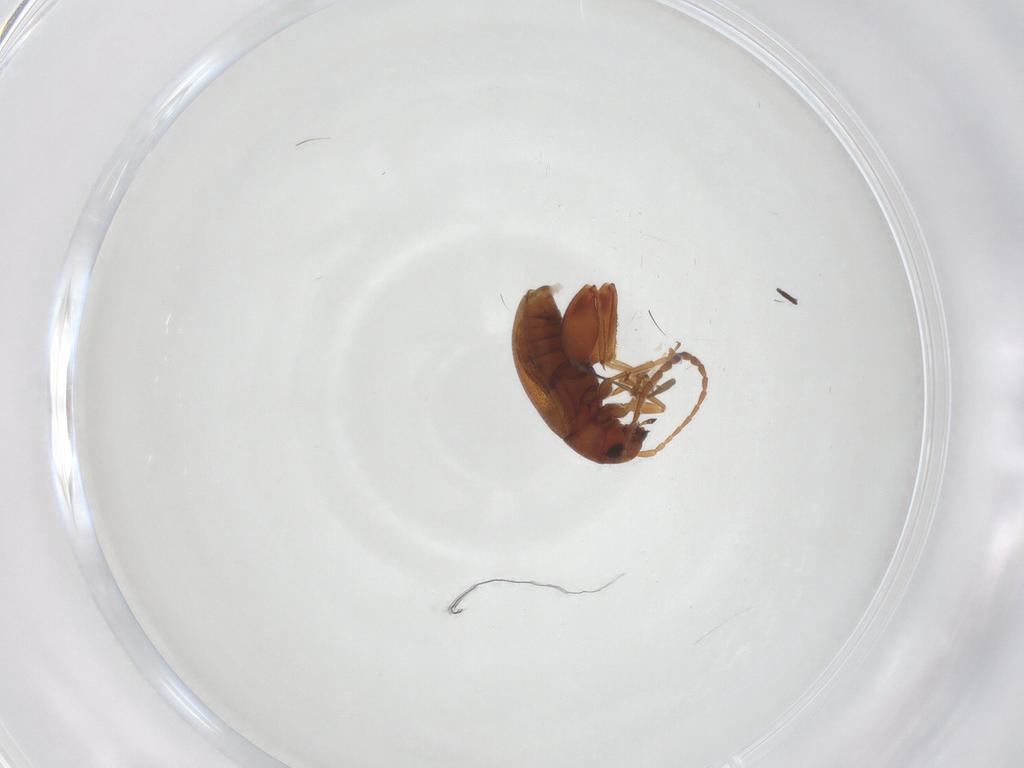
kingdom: Animalia
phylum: Arthropoda
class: Insecta
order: Coleoptera
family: Chrysomelidae
